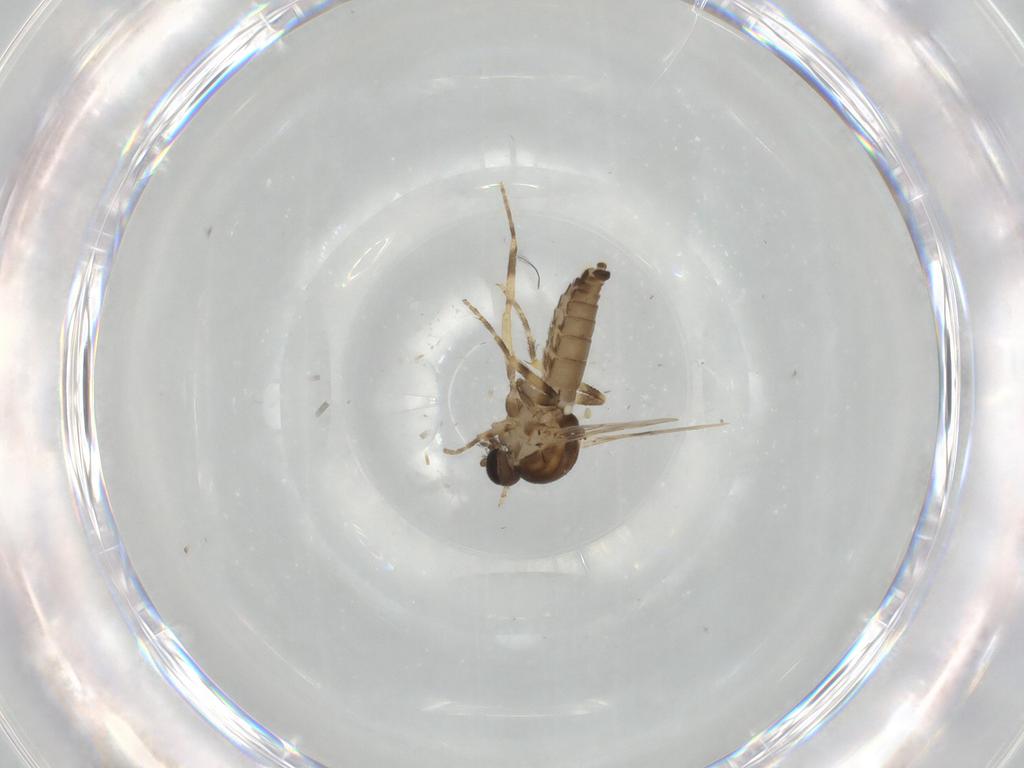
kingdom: Animalia
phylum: Arthropoda
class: Insecta
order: Diptera
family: Ceratopogonidae
